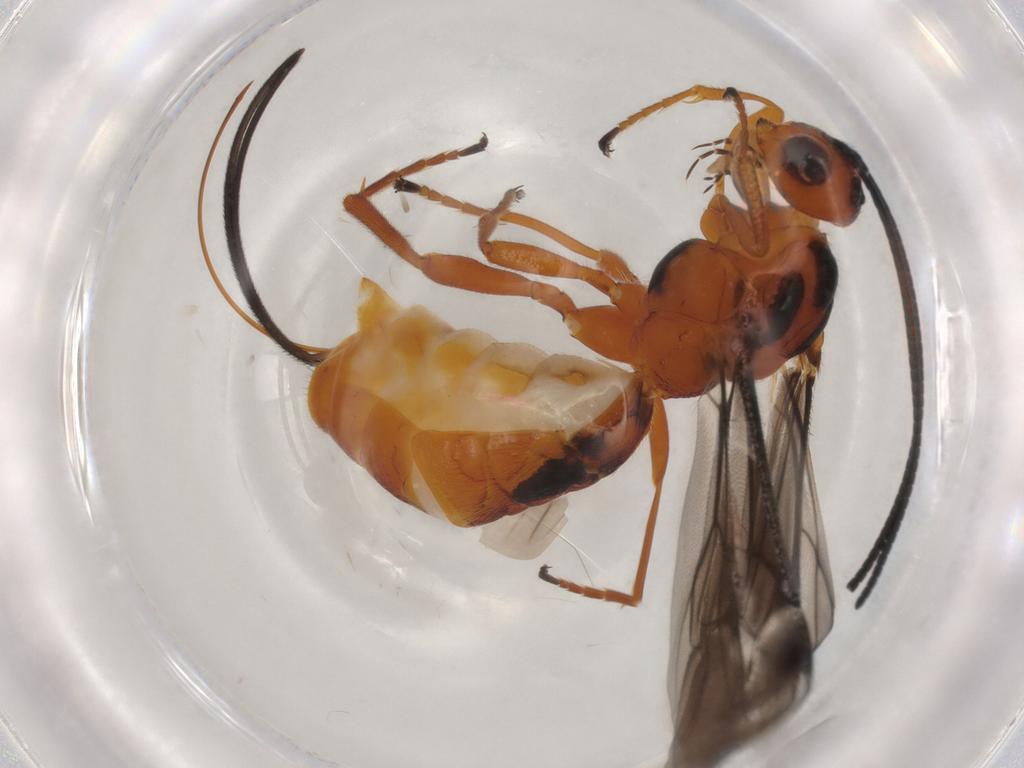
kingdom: Animalia
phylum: Arthropoda
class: Insecta
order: Hymenoptera
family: Braconidae
